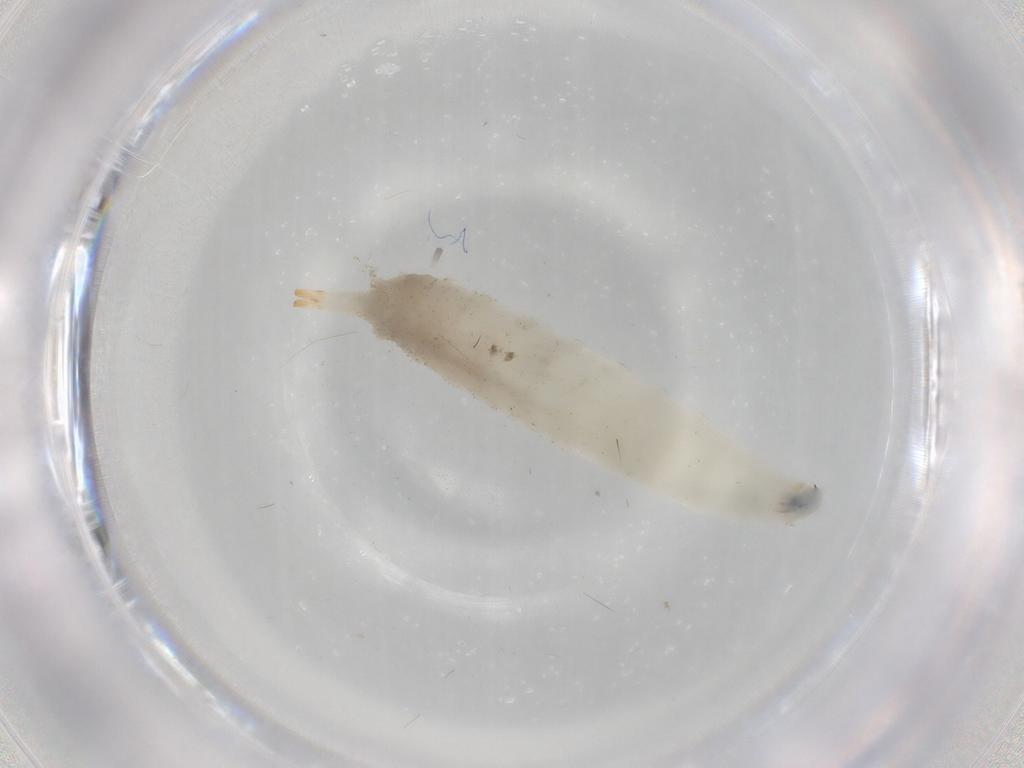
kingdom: Animalia
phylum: Arthropoda
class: Insecta
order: Diptera
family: Drosophilidae
